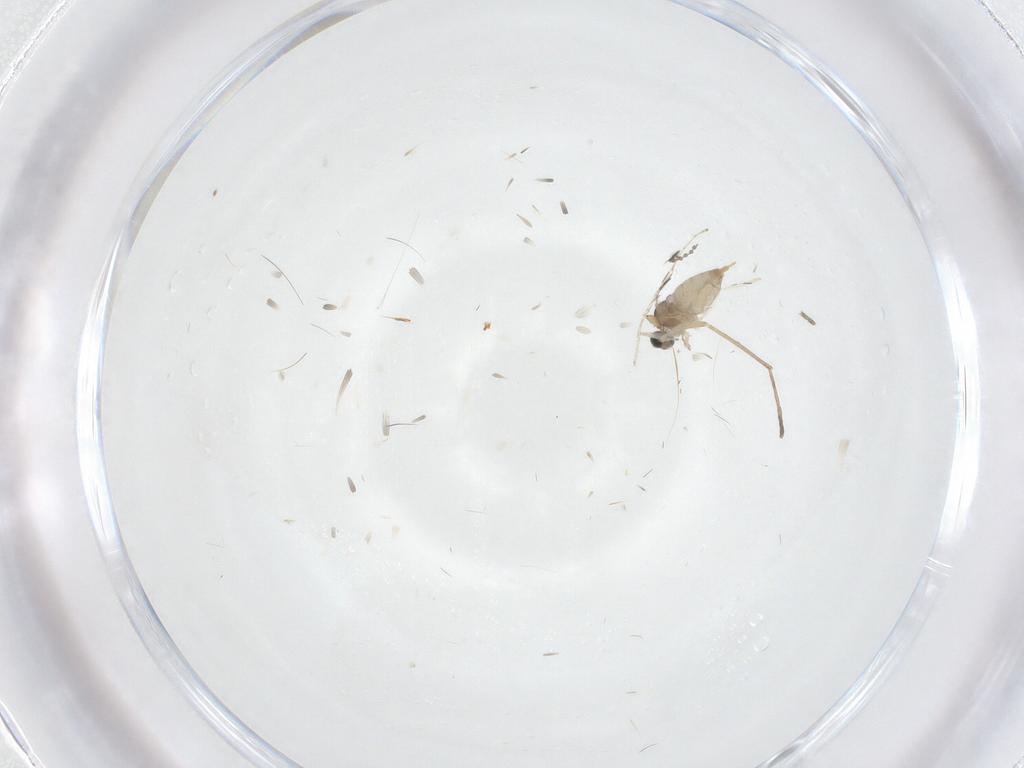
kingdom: Animalia
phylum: Arthropoda
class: Insecta
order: Diptera
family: Cecidomyiidae
